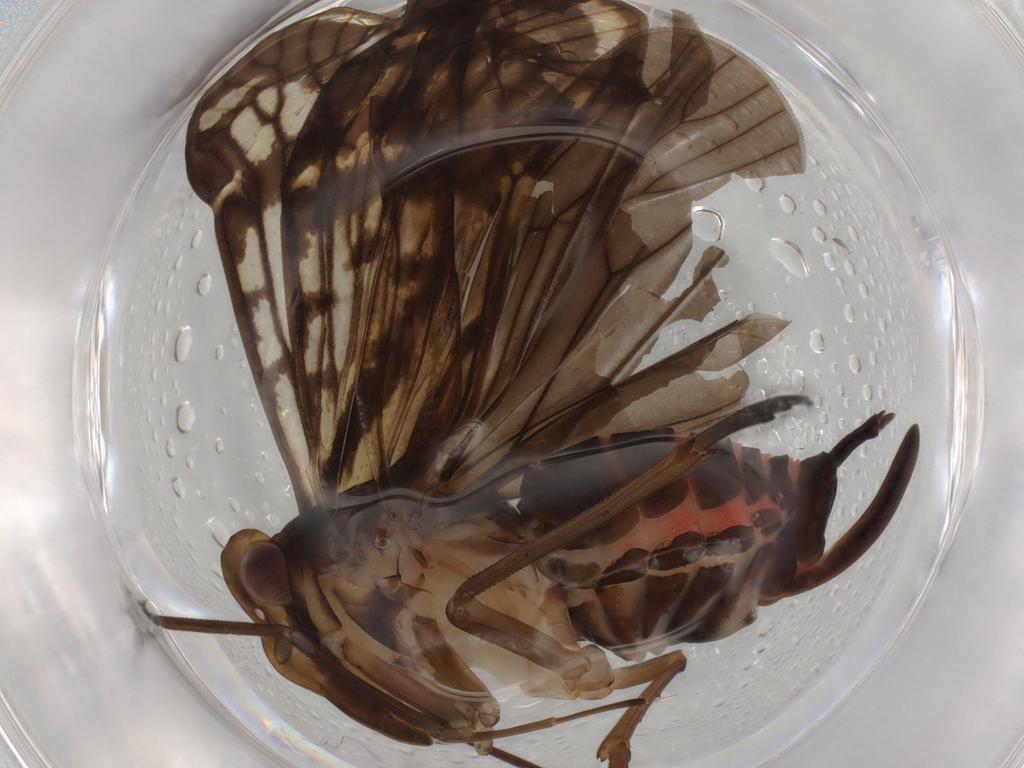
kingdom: Animalia
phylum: Arthropoda
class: Insecta
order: Hemiptera
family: Cixiidae
